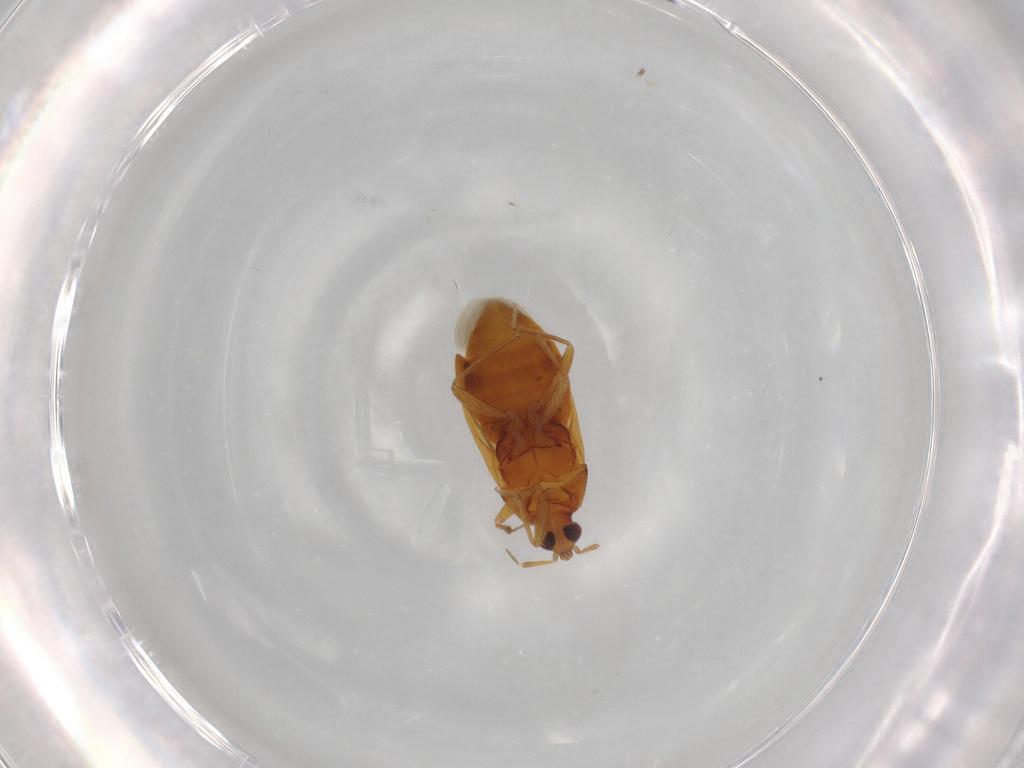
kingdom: Animalia
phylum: Arthropoda
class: Insecta
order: Hemiptera
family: Anthocoridae
